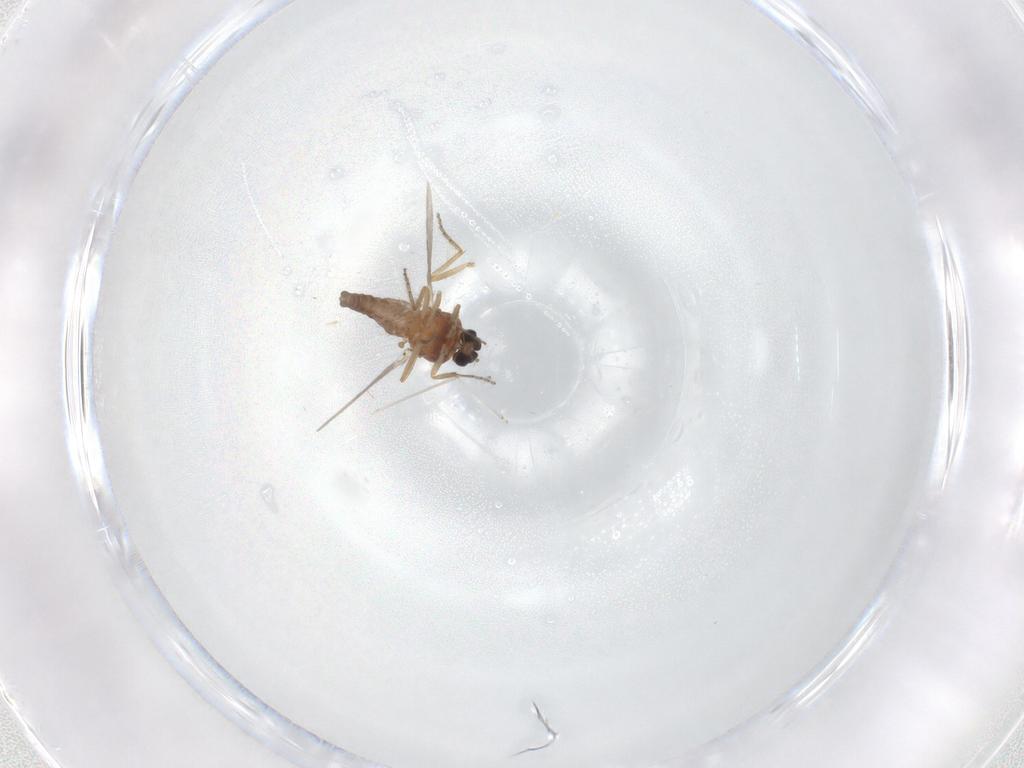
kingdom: Animalia
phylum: Arthropoda
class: Insecta
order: Diptera
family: Ceratopogonidae
